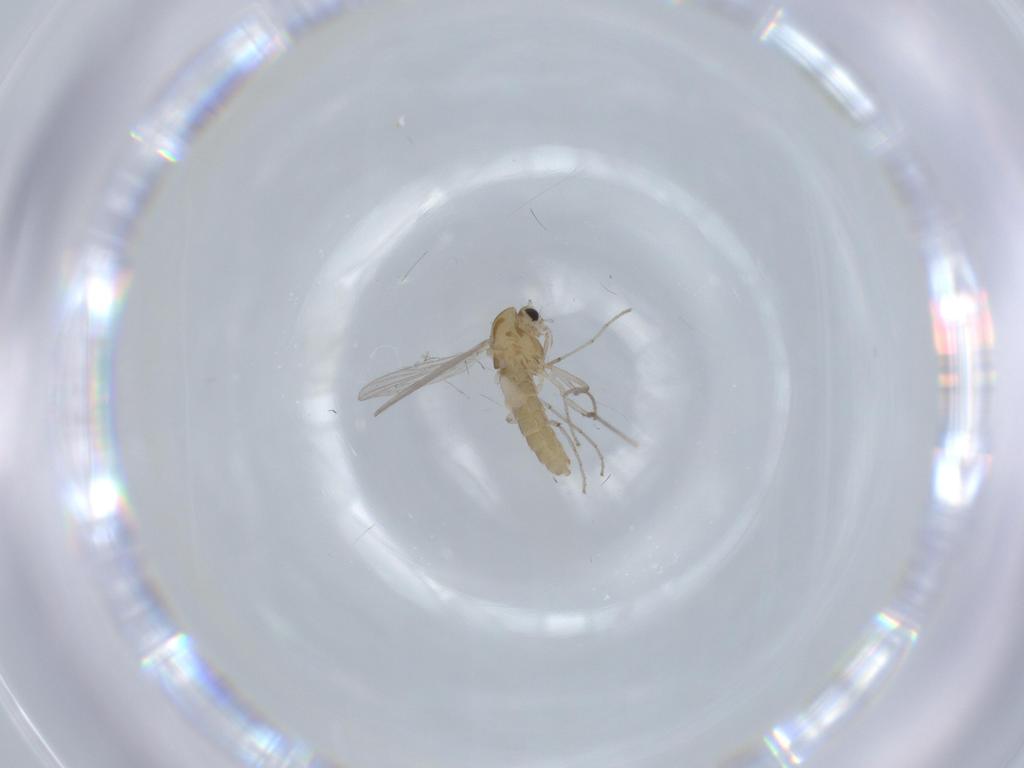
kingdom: Animalia
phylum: Arthropoda
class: Insecta
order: Diptera
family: Chironomidae
